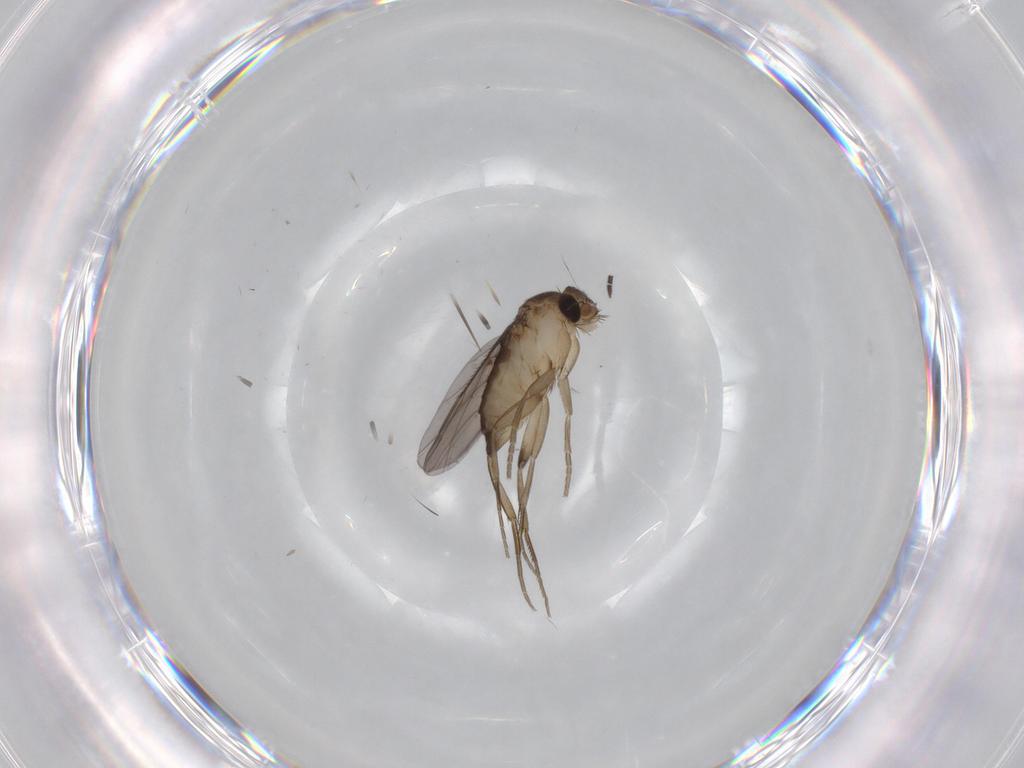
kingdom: Animalia
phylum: Arthropoda
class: Insecta
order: Diptera
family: Phoridae
